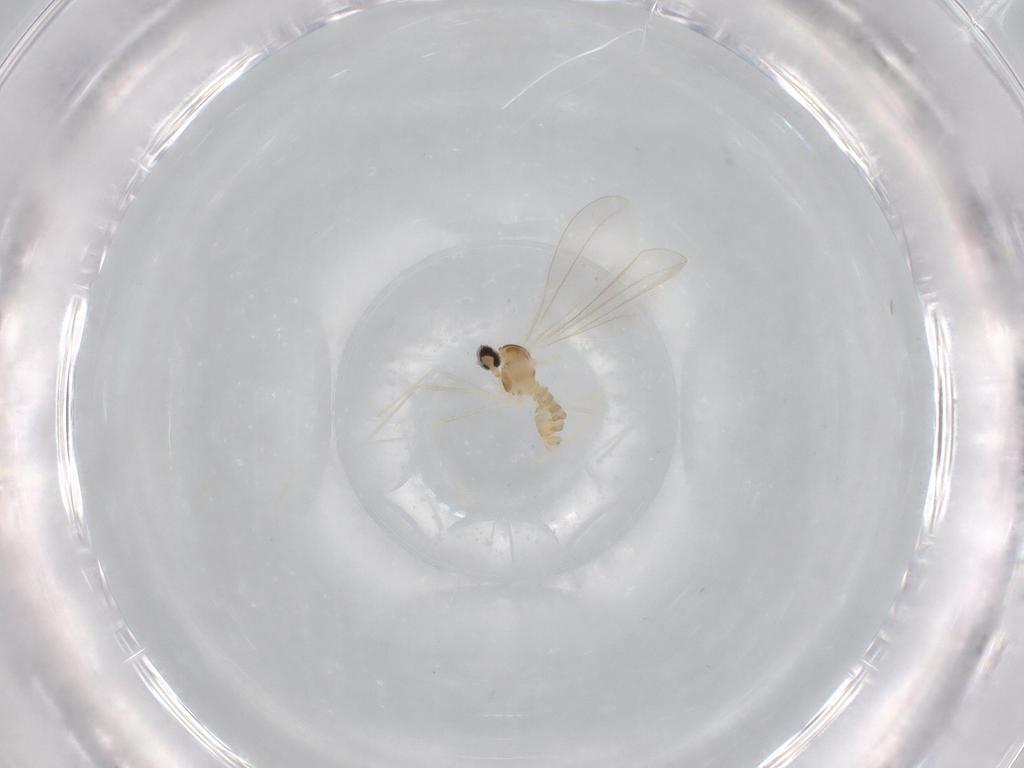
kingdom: Animalia
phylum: Arthropoda
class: Insecta
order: Diptera
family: Cecidomyiidae
